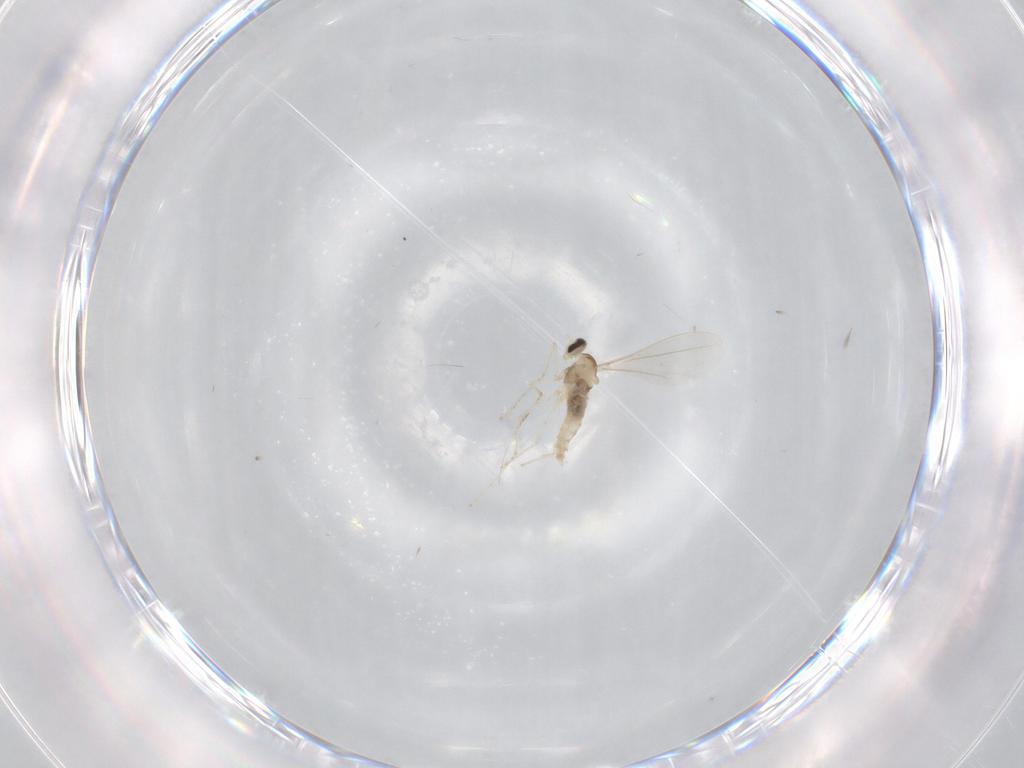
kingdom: Animalia
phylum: Arthropoda
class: Insecta
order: Diptera
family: Cecidomyiidae
